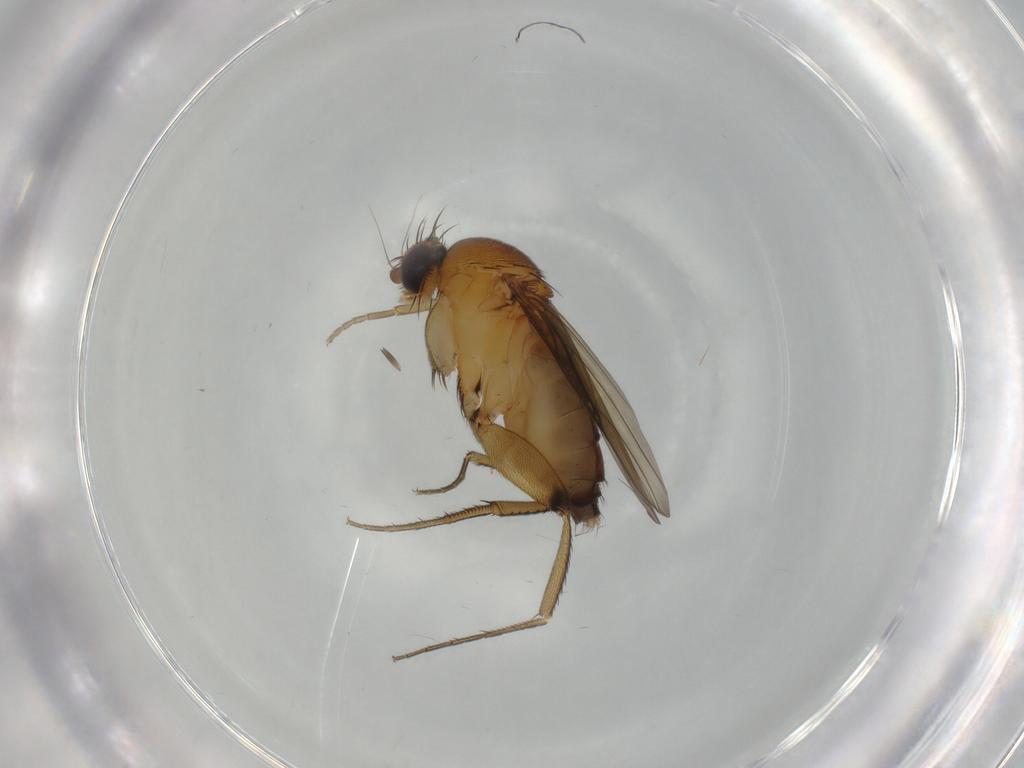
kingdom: Animalia
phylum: Arthropoda
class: Insecta
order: Diptera
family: Phoridae
